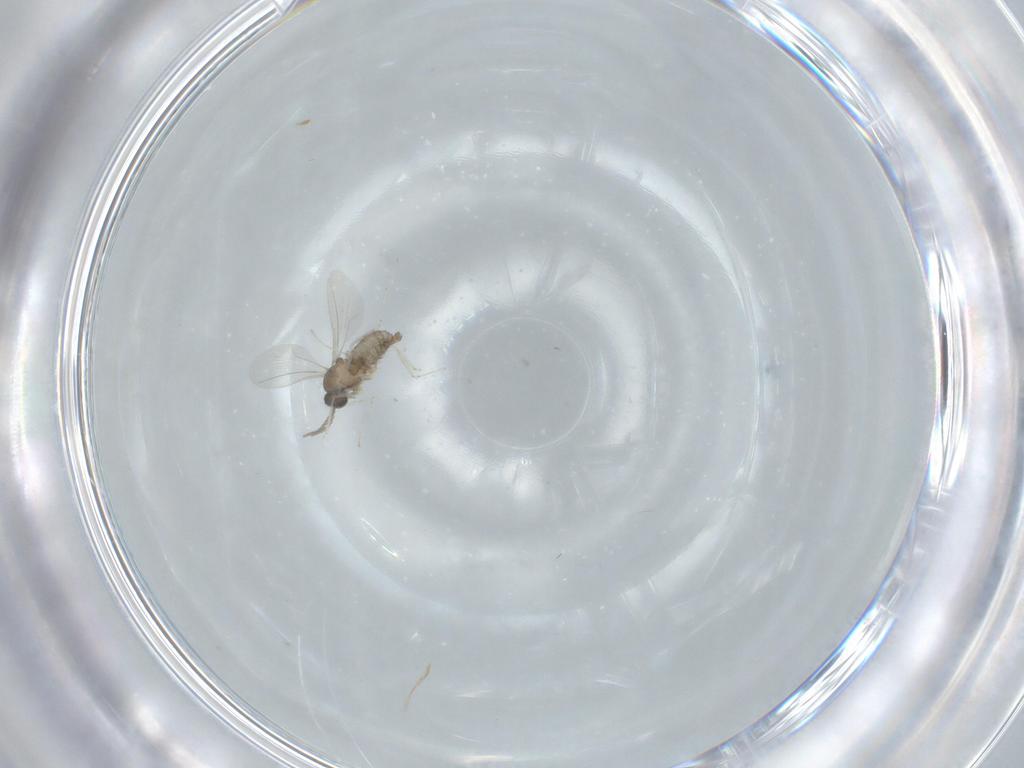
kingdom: Animalia
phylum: Arthropoda
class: Insecta
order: Diptera
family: Cecidomyiidae
